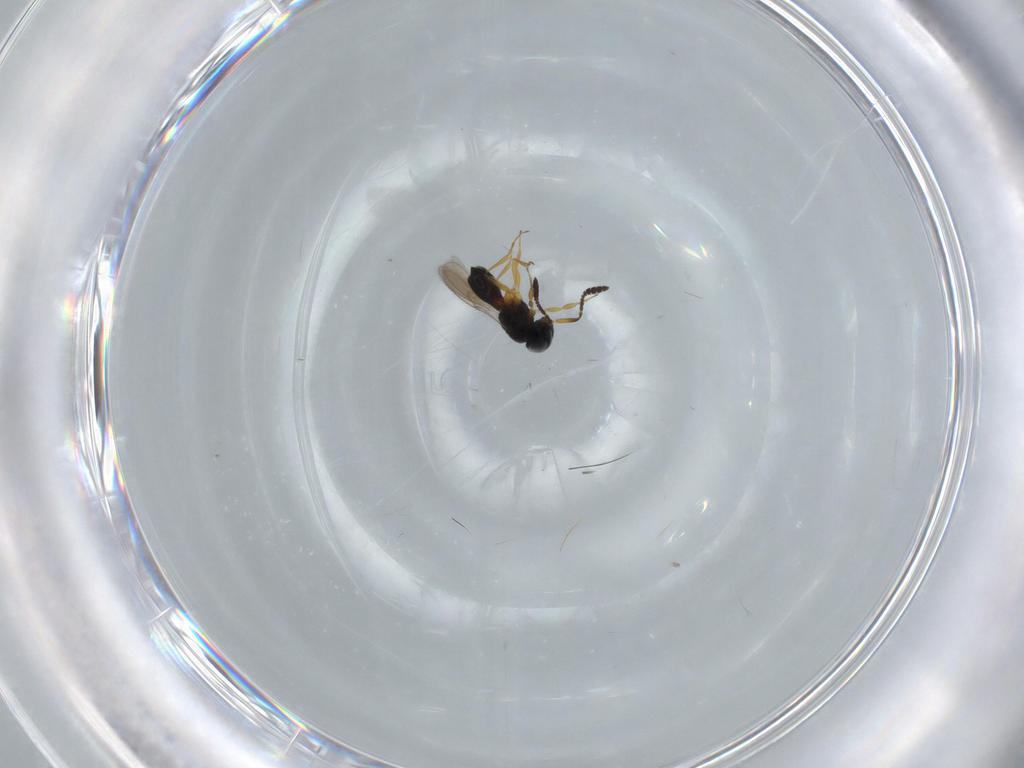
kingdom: Animalia
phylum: Arthropoda
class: Insecta
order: Hymenoptera
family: Scelionidae
